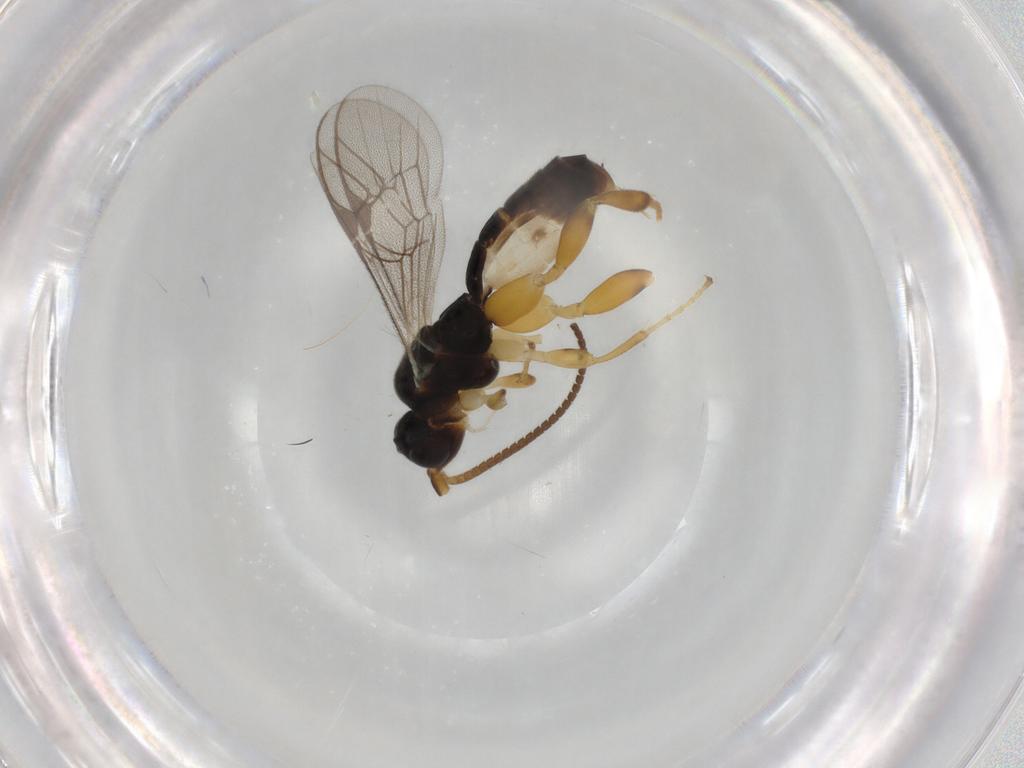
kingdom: Animalia
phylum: Arthropoda
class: Insecta
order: Hymenoptera
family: Ichneumonidae
